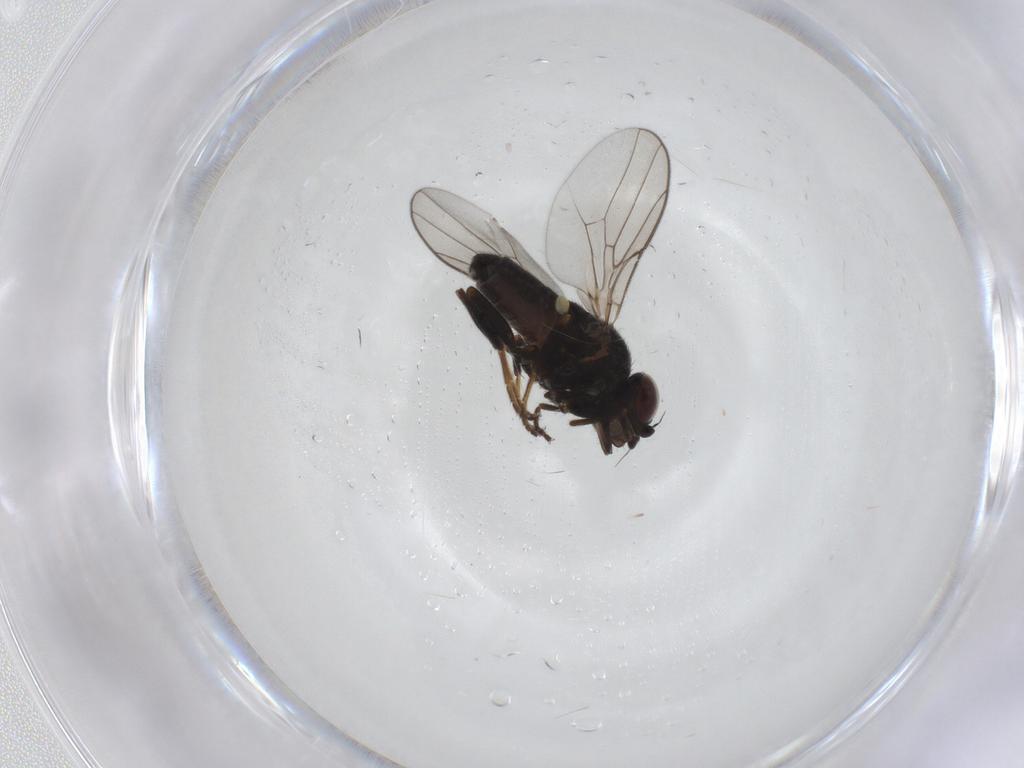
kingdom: Animalia
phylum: Arthropoda
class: Insecta
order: Diptera
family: Chloropidae
